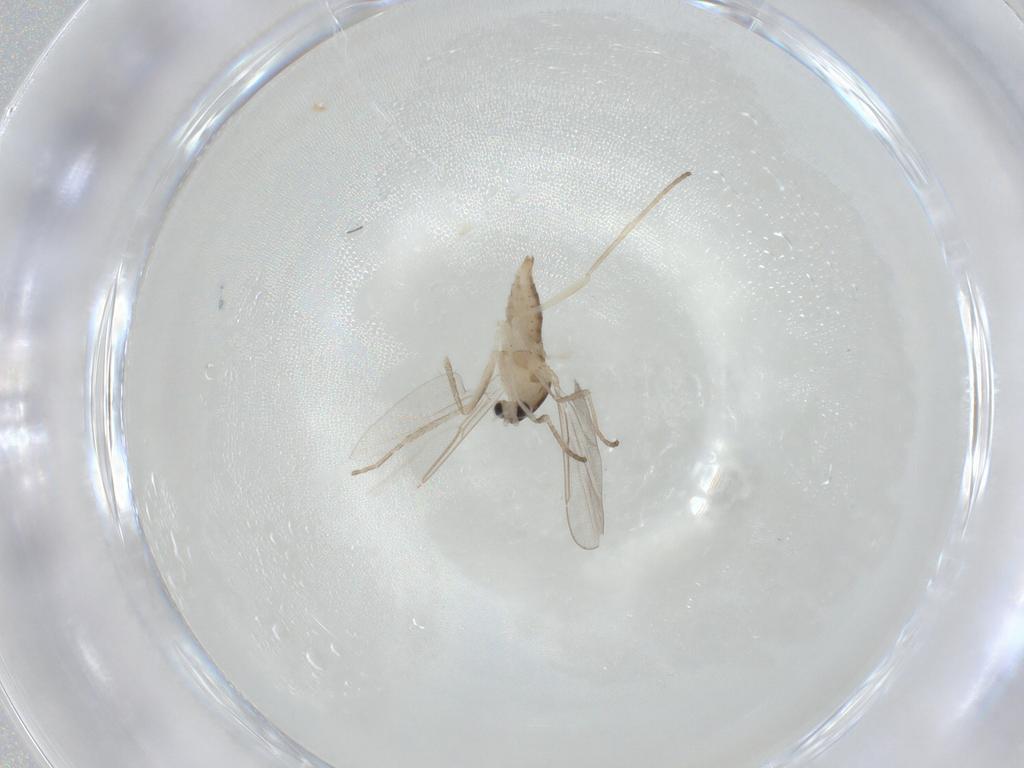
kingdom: Animalia
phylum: Arthropoda
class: Insecta
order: Diptera
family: Cecidomyiidae
